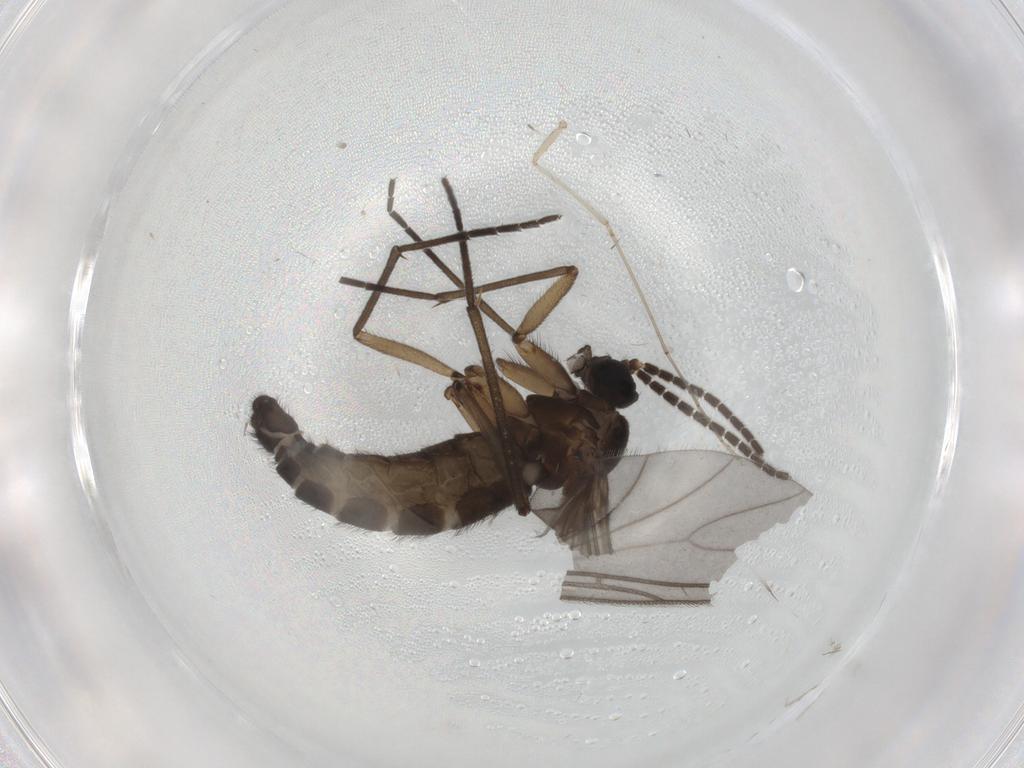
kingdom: Animalia
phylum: Arthropoda
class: Insecta
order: Diptera
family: Sciaridae
